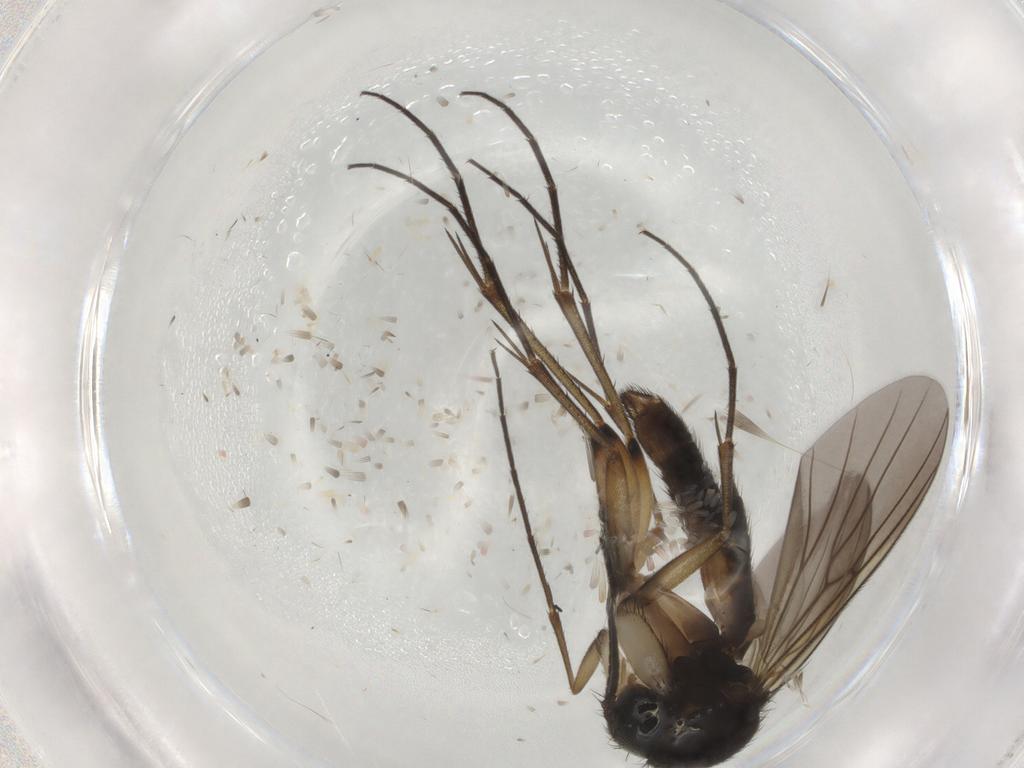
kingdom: Animalia
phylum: Arthropoda
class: Insecta
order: Diptera
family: Mycetophilidae
